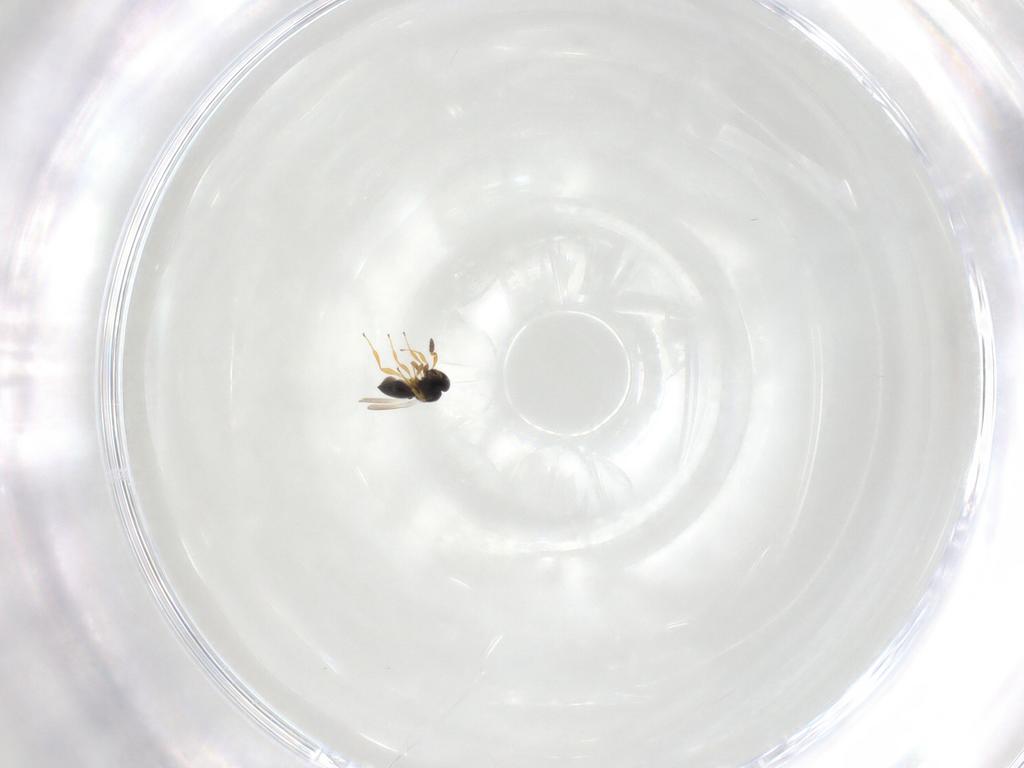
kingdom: Animalia
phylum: Arthropoda
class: Insecta
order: Hymenoptera
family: Platygastridae
